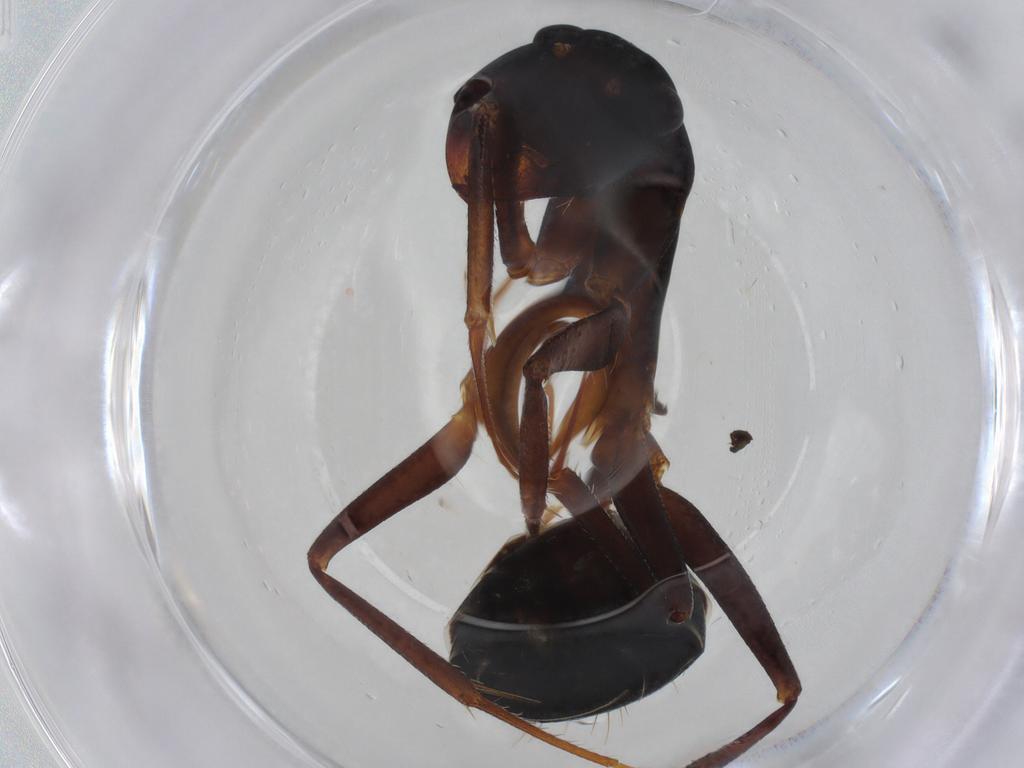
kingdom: Animalia
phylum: Arthropoda
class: Insecta
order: Hymenoptera
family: Formicidae
